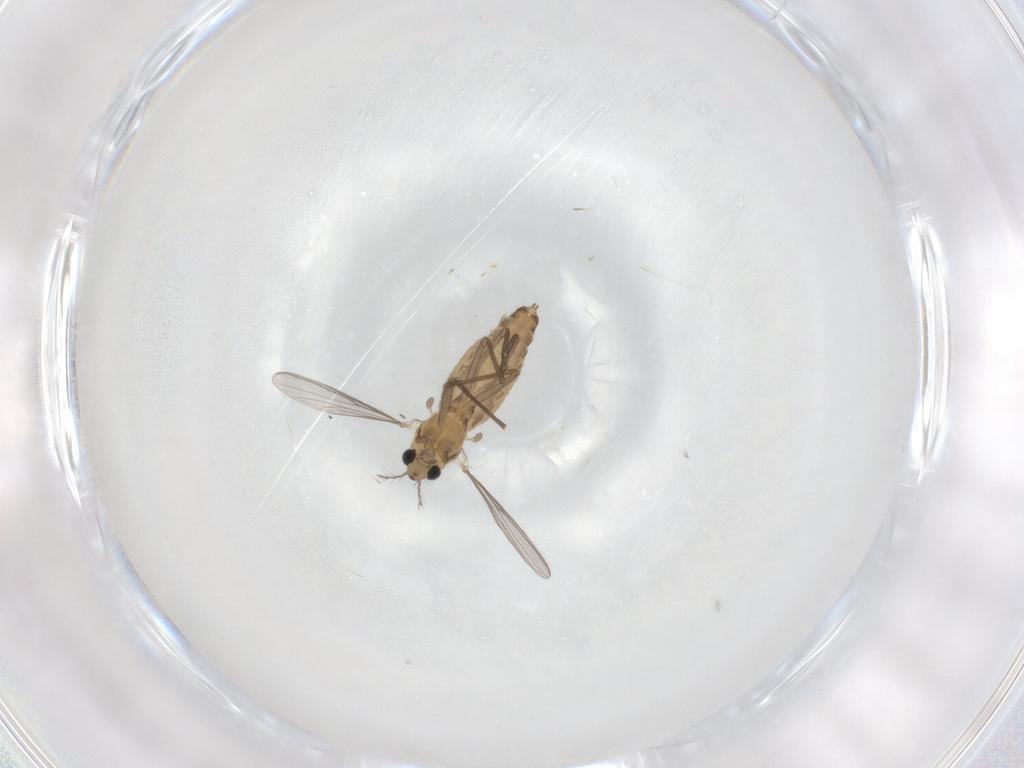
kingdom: Animalia
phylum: Arthropoda
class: Insecta
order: Diptera
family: Chironomidae
